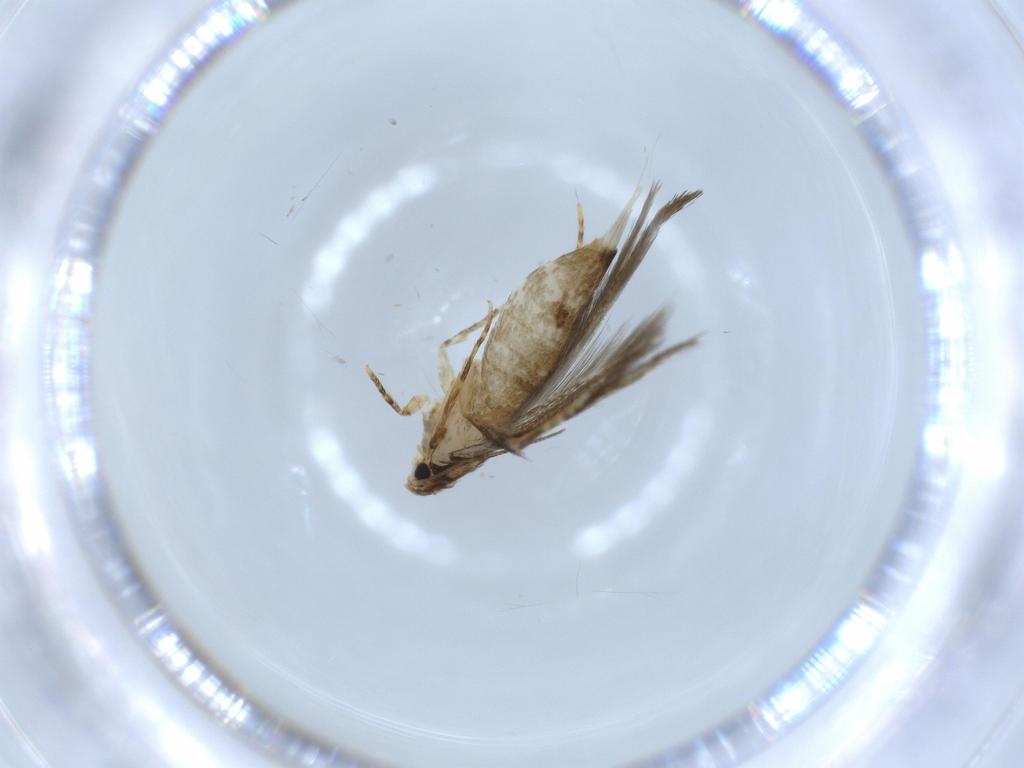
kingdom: Animalia
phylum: Arthropoda
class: Insecta
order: Lepidoptera
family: Tineidae
